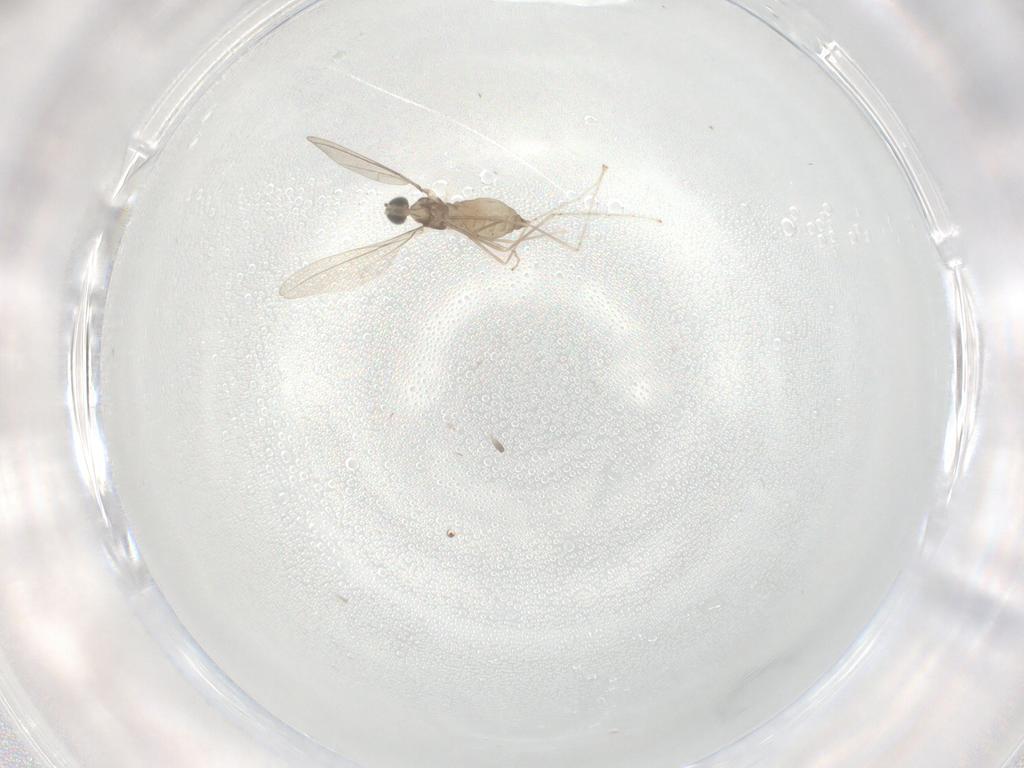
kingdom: Animalia
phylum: Arthropoda
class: Insecta
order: Diptera
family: Cecidomyiidae
